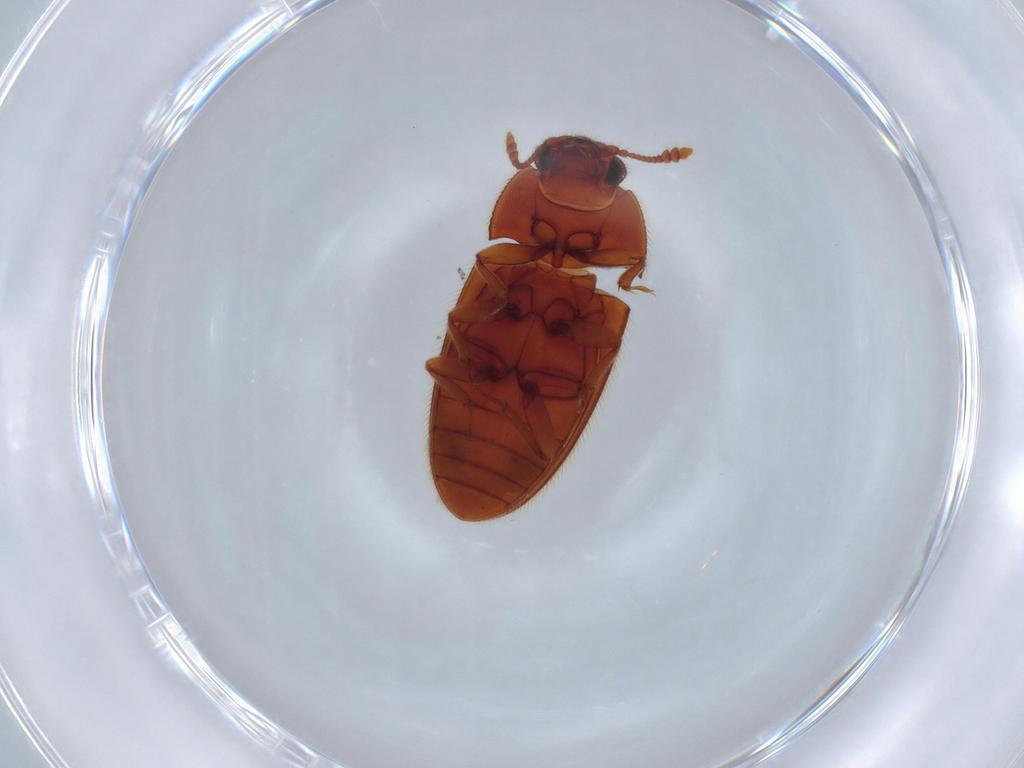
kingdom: Animalia
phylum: Arthropoda
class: Insecta
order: Coleoptera
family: Biphyllidae
